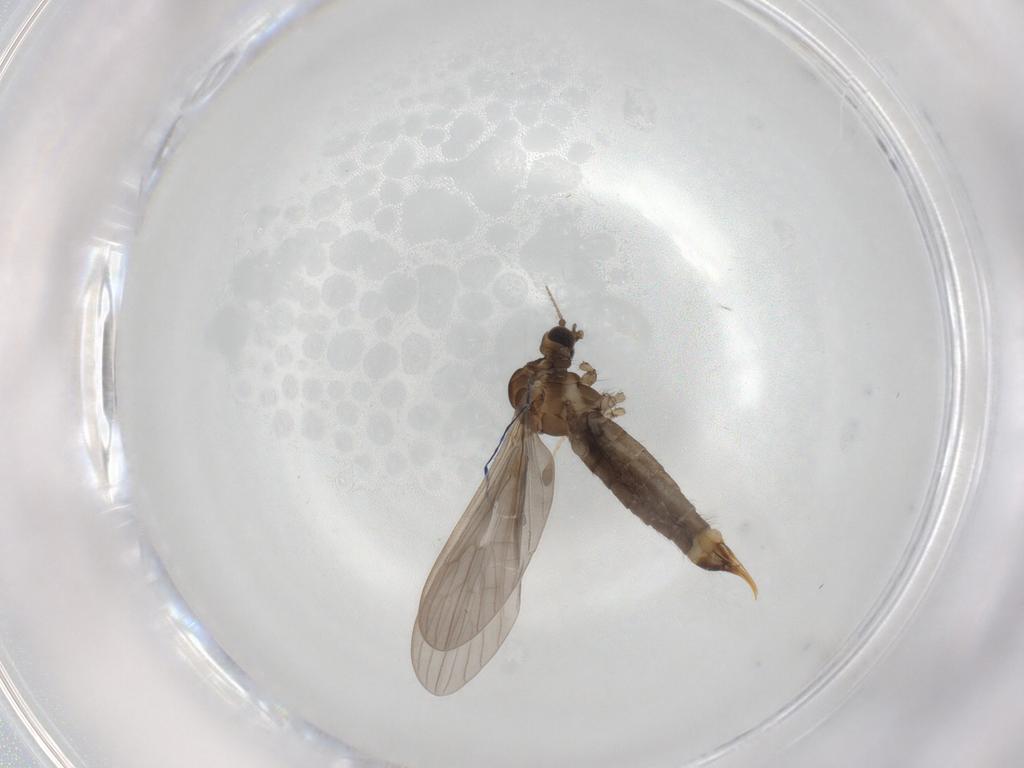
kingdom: Animalia
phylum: Arthropoda
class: Insecta
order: Diptera
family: Limoniidae
